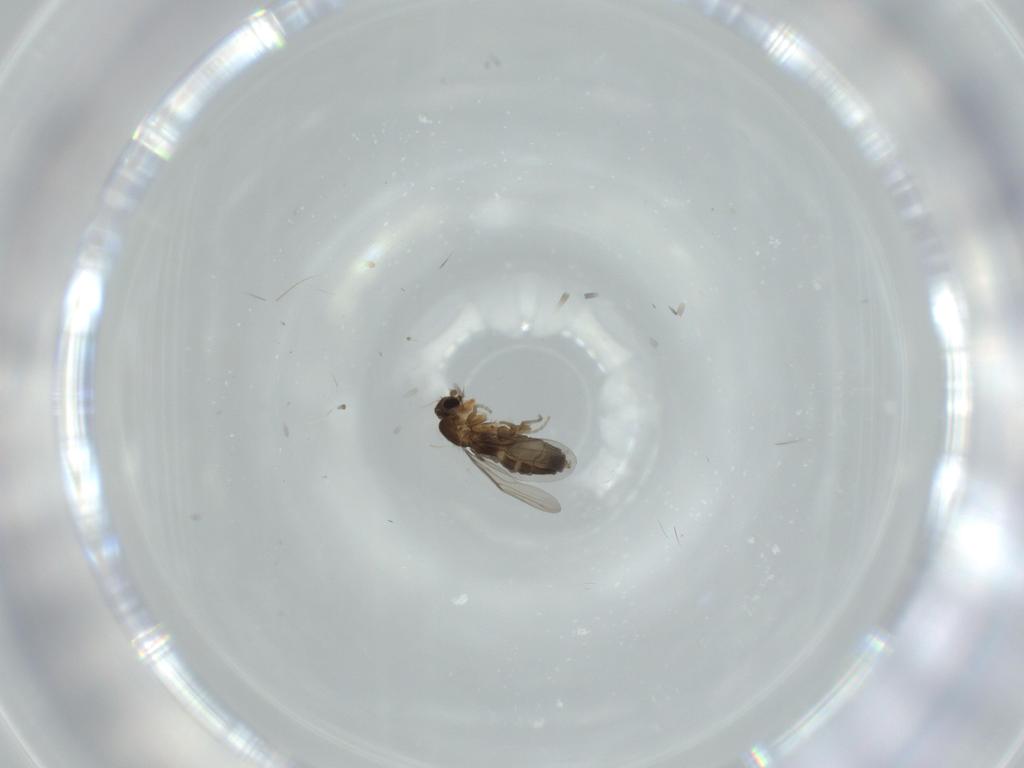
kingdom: Animalia
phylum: Arthropoda
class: Insecta
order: Diptera
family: Phoridae
